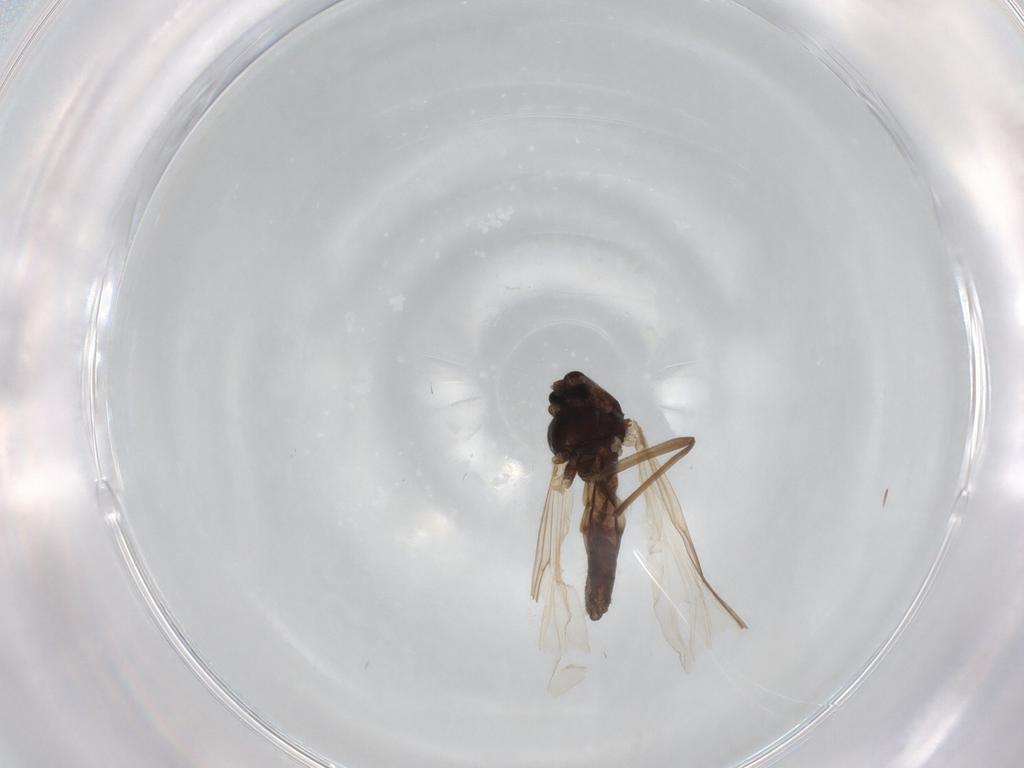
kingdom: Animalia
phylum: Arthropoda
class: Insecta
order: Diptera
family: Chironomidae
